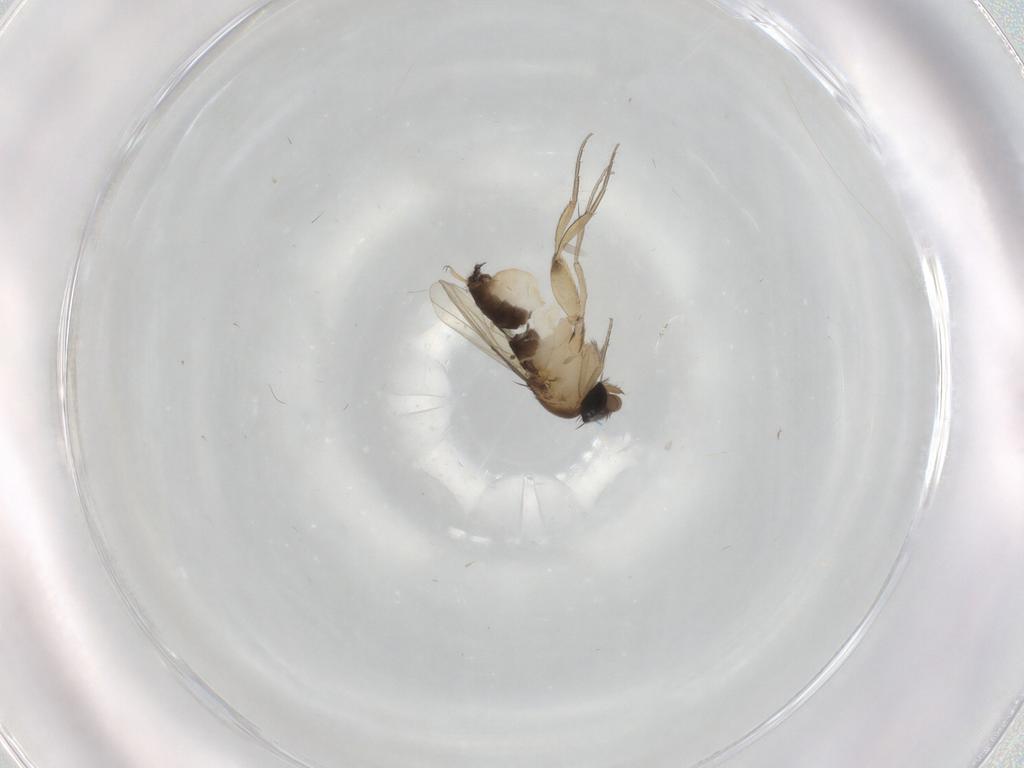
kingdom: Animalia
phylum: Arthropoda
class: Insecta
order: Diptera
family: Phoridae
